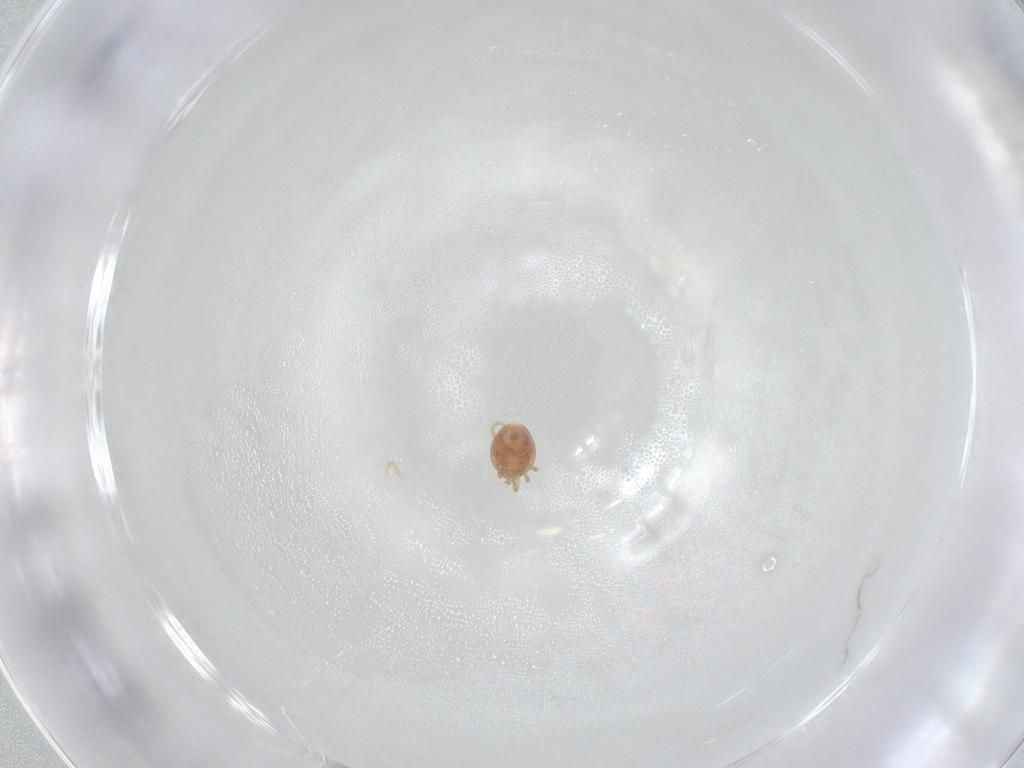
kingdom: Animalia
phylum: Arthropoda
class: Arachnida
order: Mesostigmata
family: Phytoseiidae
